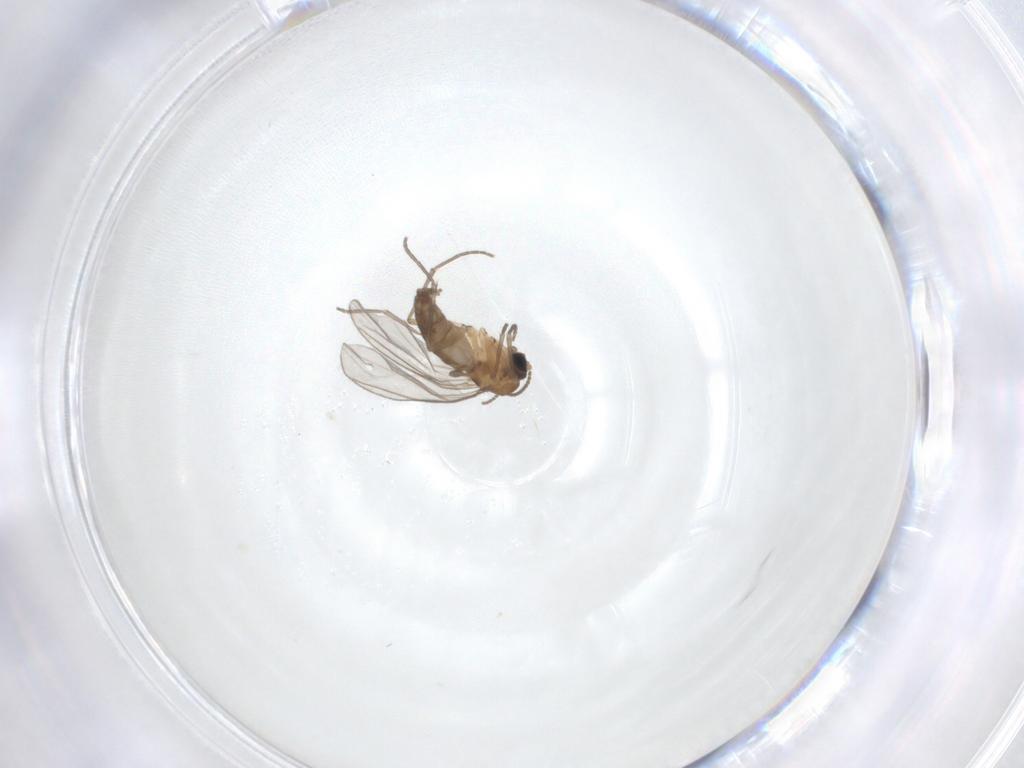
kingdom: Animalia
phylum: Arthropoda
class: Insecta
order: Diptera
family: Sciaridae
